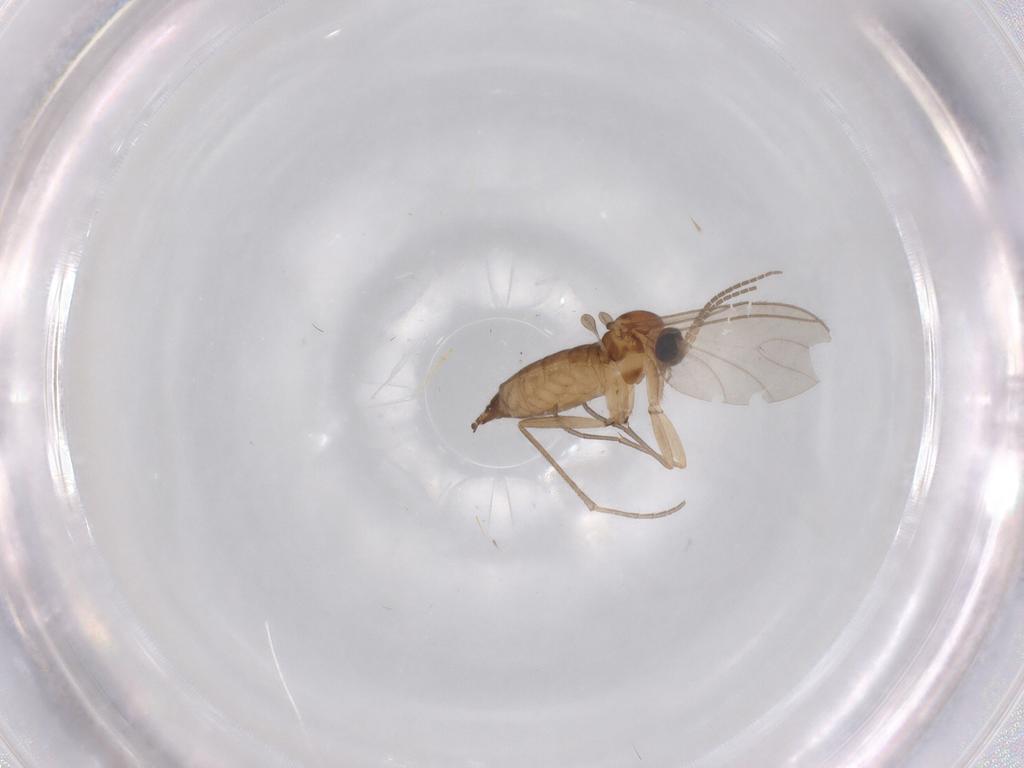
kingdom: Animalia
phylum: Arthropoda
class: Insecta
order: Diptera
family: Sciaridae
